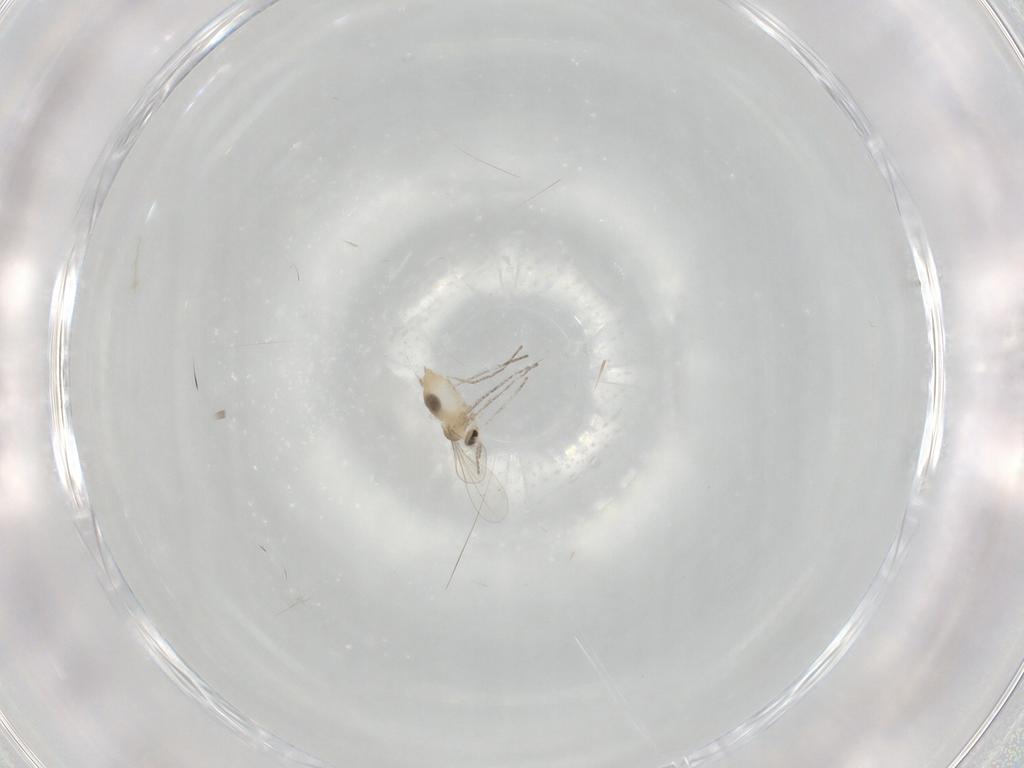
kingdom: Animalia
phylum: Arthropoda
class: Insecta
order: Diptera
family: Cecidomyiidae
